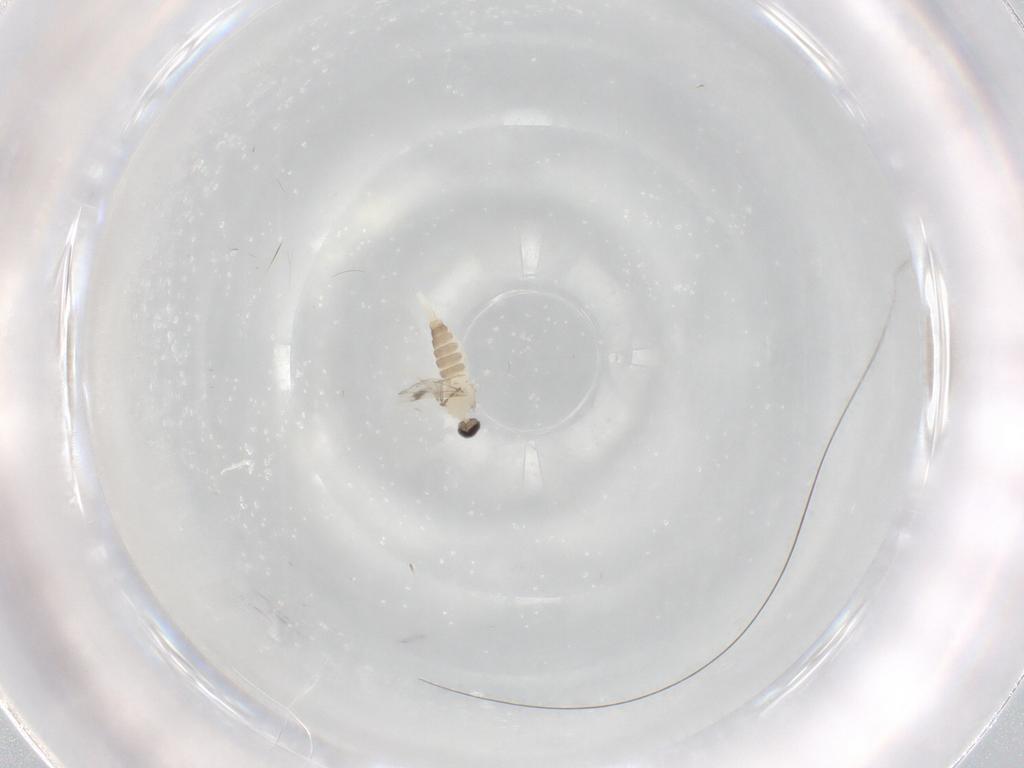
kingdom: Animalia
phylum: Arthropoda
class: Insecta
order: Diptera
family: Cecidomyiidae
